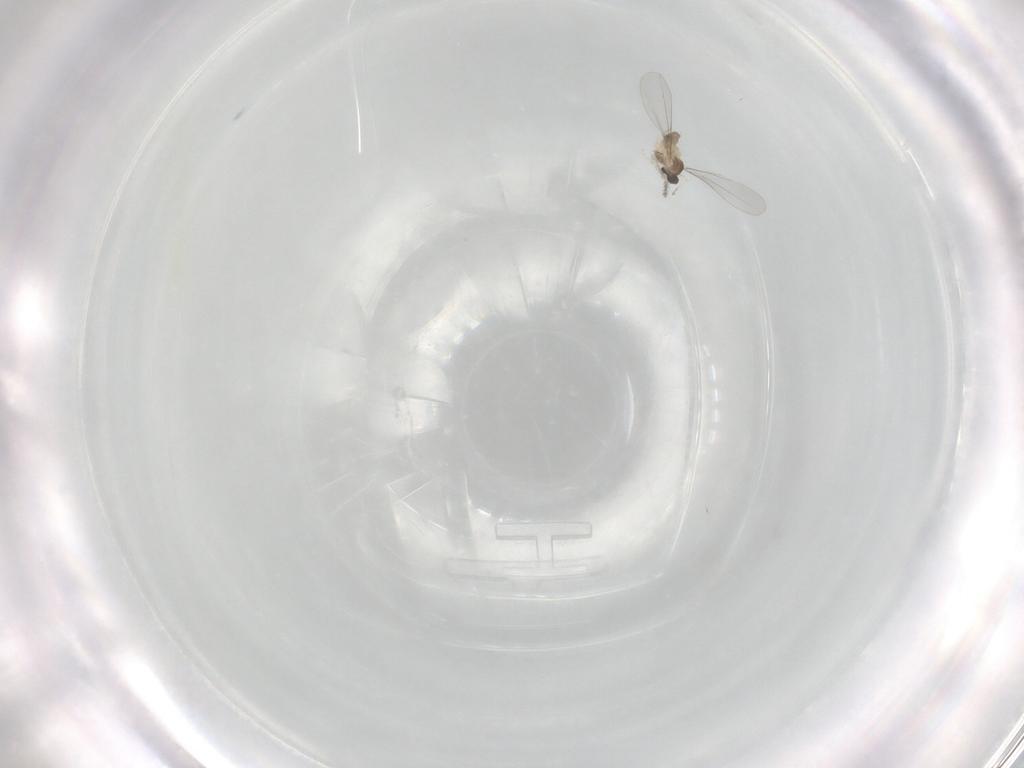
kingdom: Animalia
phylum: Arthropoda
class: Insecta
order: Diptera
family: Cecidomyiidae
